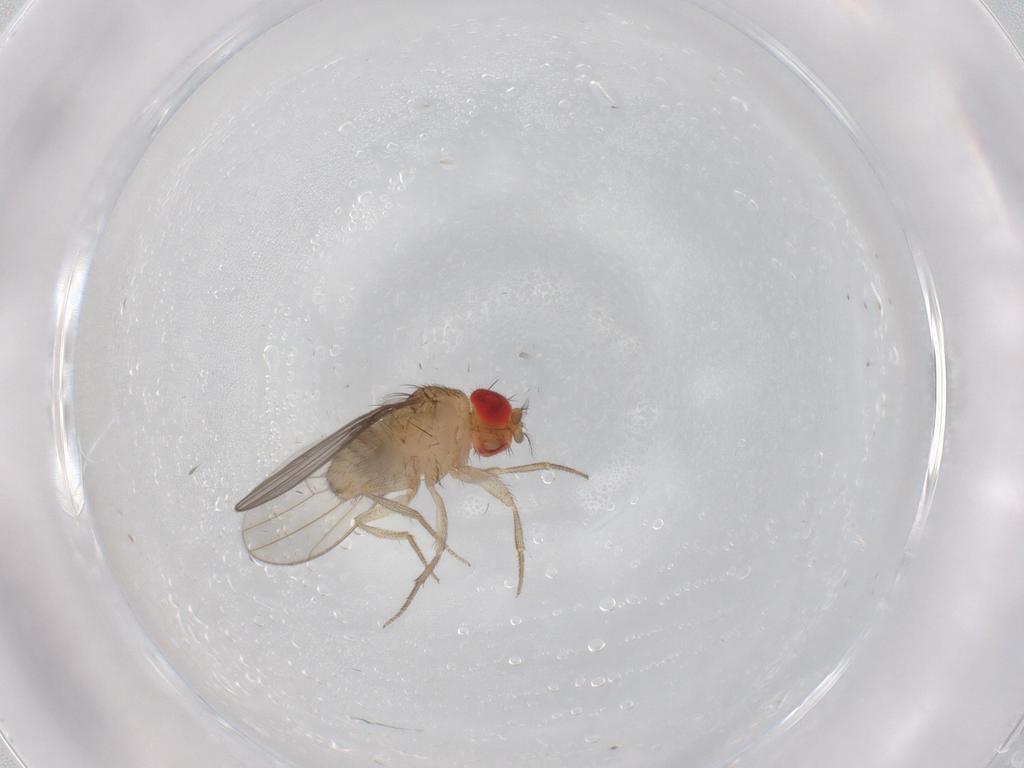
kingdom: Animalia
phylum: Arthropoda
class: Insecta
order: Diptera
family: Drosophilidae
